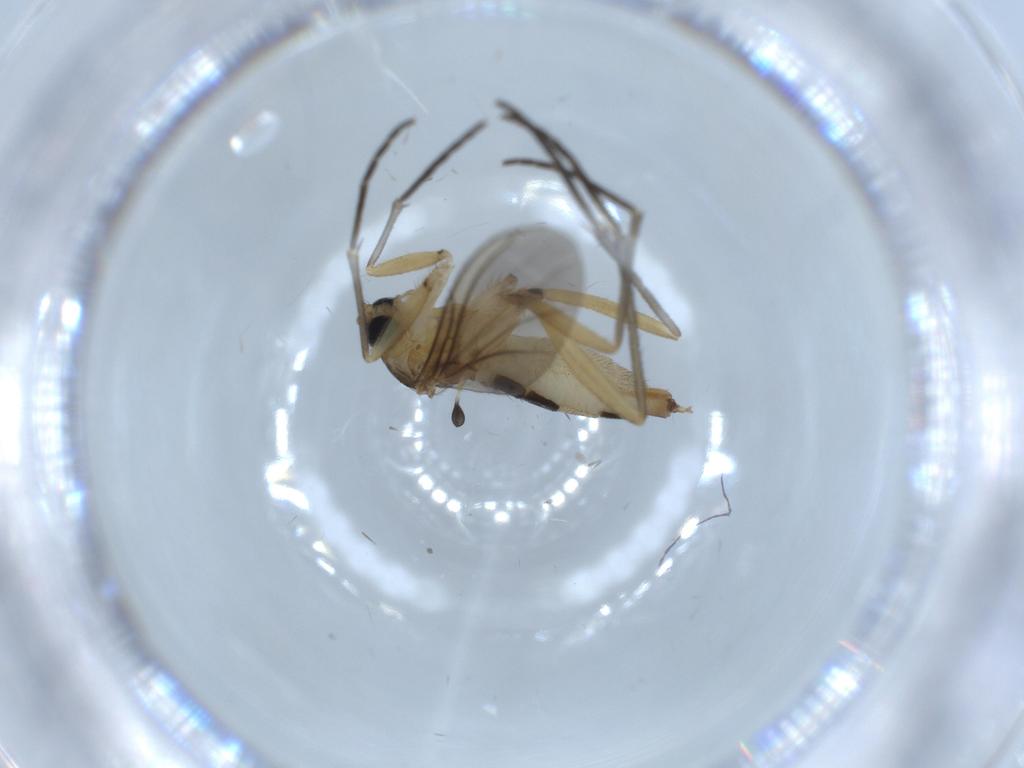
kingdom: Animalia
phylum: Arthropoda
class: Insecta
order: Diptera
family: Sciaridae
